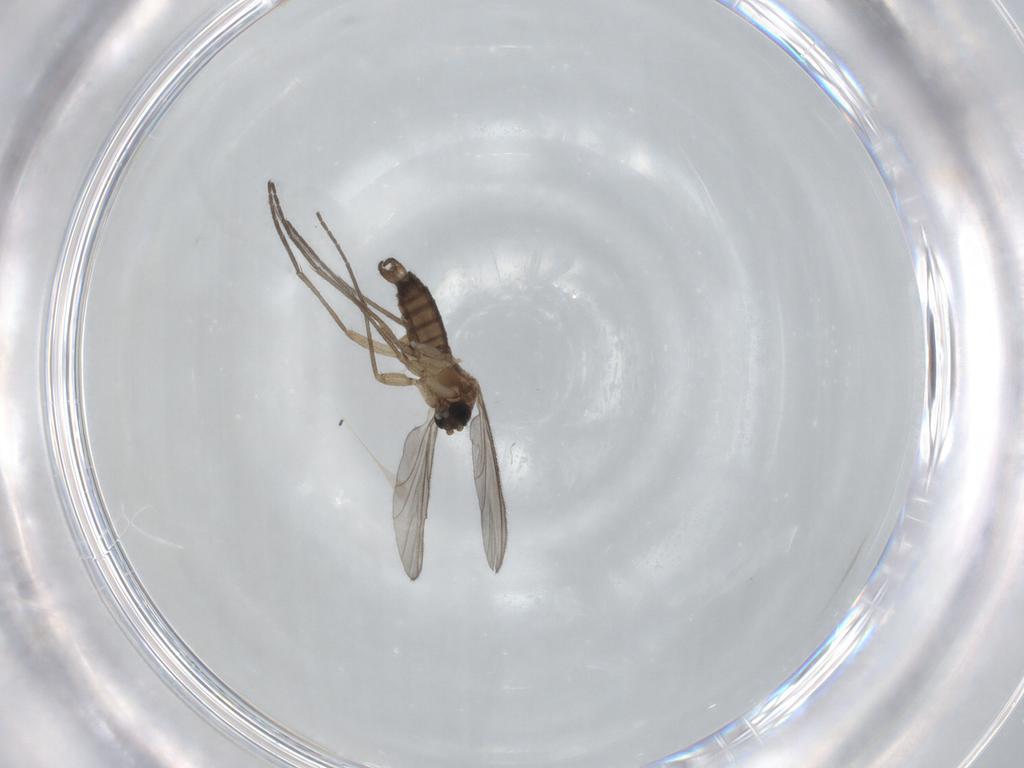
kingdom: Animalia
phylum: Arthropoda
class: Insecta
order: Diptera
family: Sciaridae
